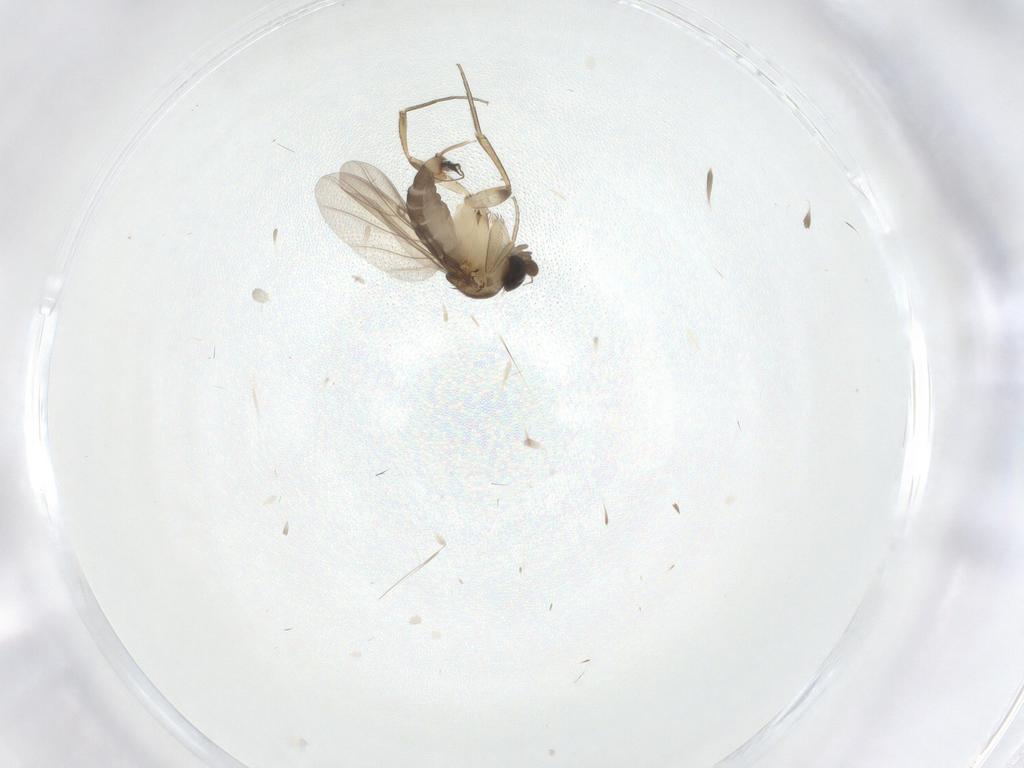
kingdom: Animalia
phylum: Arthropoda
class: Insecta
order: Diptera
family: Phoridae
